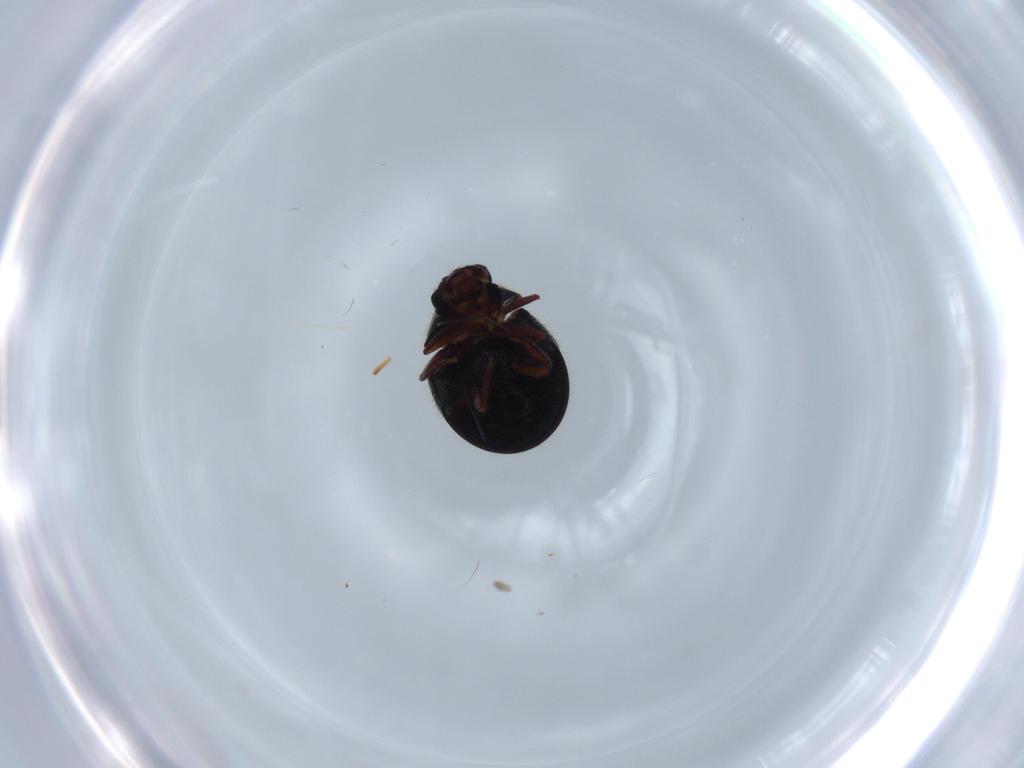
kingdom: Animalia
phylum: Arthropoda
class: Insecta
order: Coleoptera
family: Ptinidae
